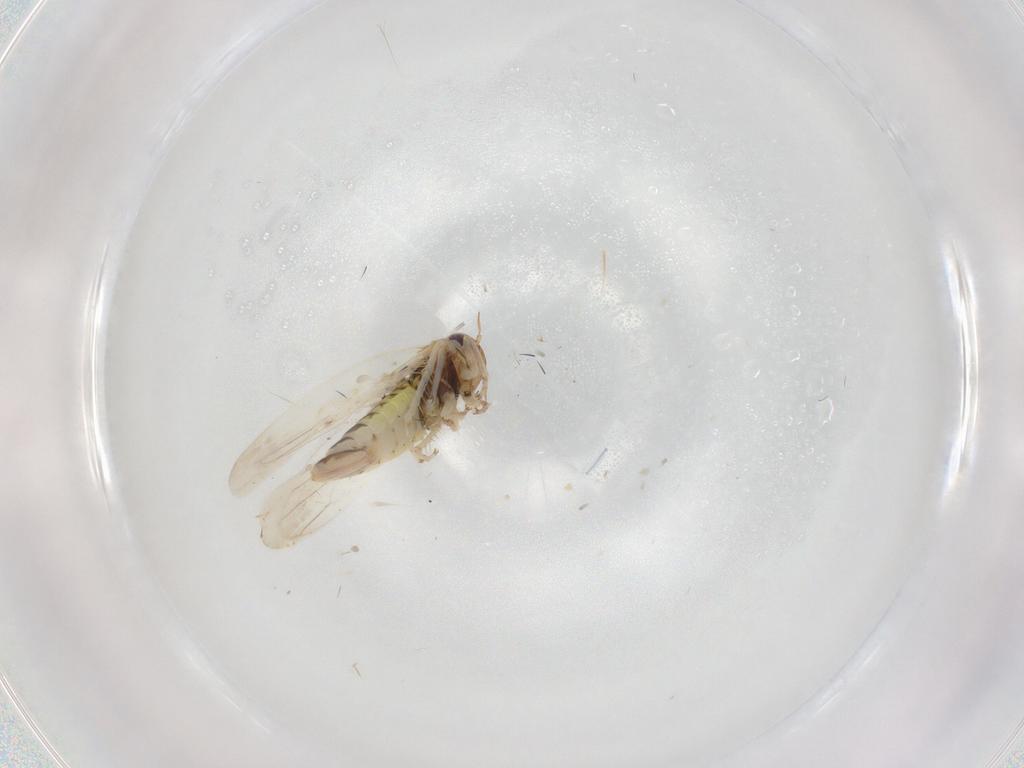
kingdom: Animalia
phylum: Arthropoda
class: Insecta
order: Hemiptera
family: Cicadellidae
